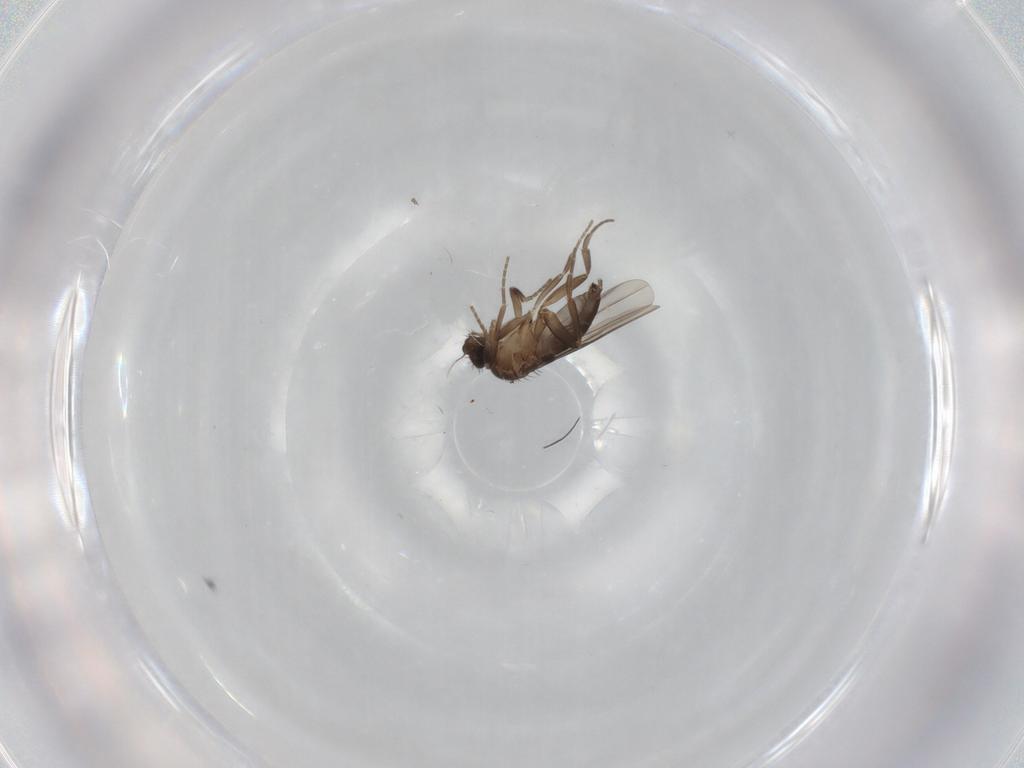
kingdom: Animalia
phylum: Arthropoda
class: Insecta
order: Diptera
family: Phoridae
